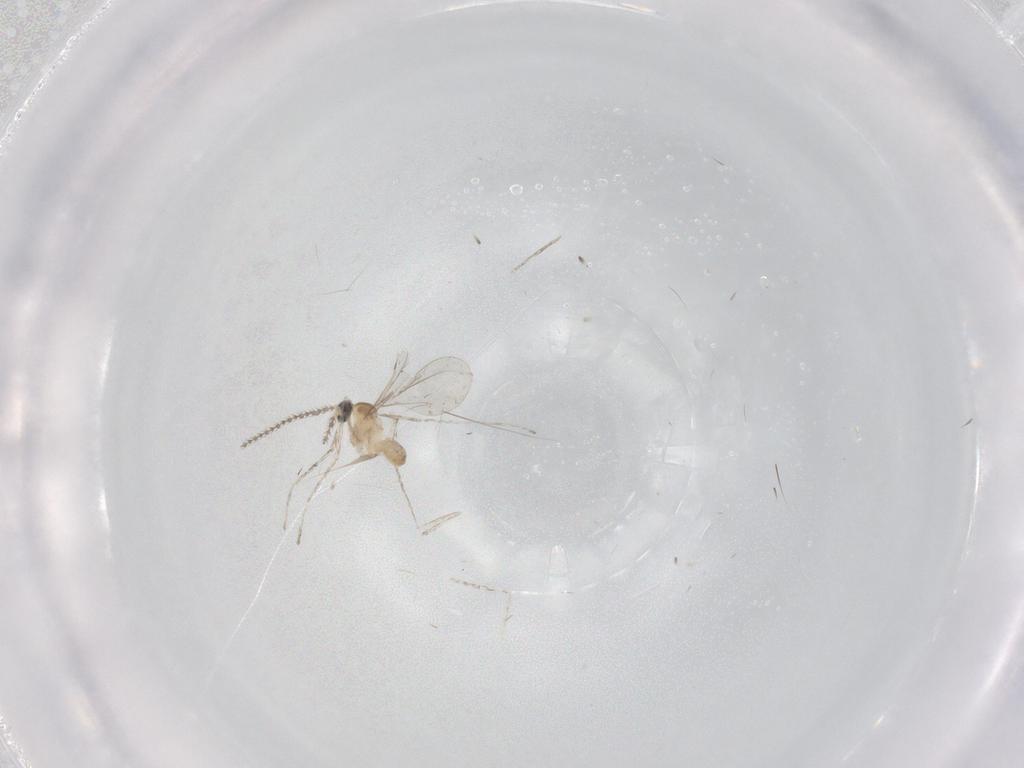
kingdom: Animalia
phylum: Arthropoda
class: Insecta
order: Diptera
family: Cecidomyiidae
